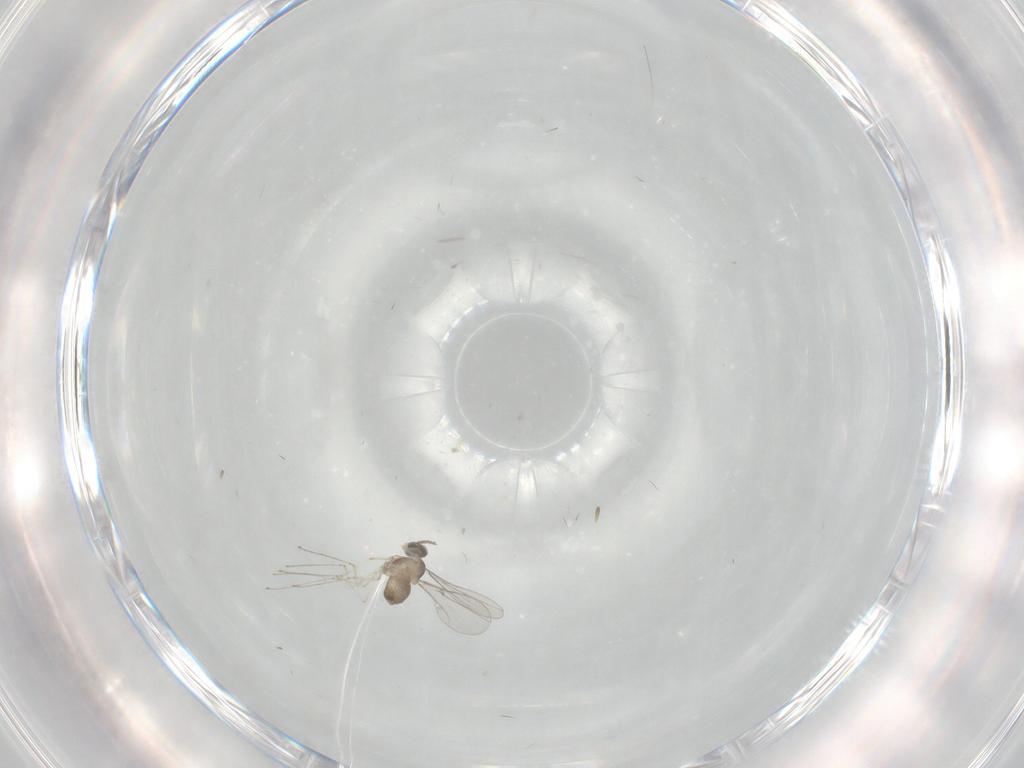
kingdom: Animalia
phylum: Arthropoda
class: Insecta
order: Diptera
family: Cecidomyiidae
